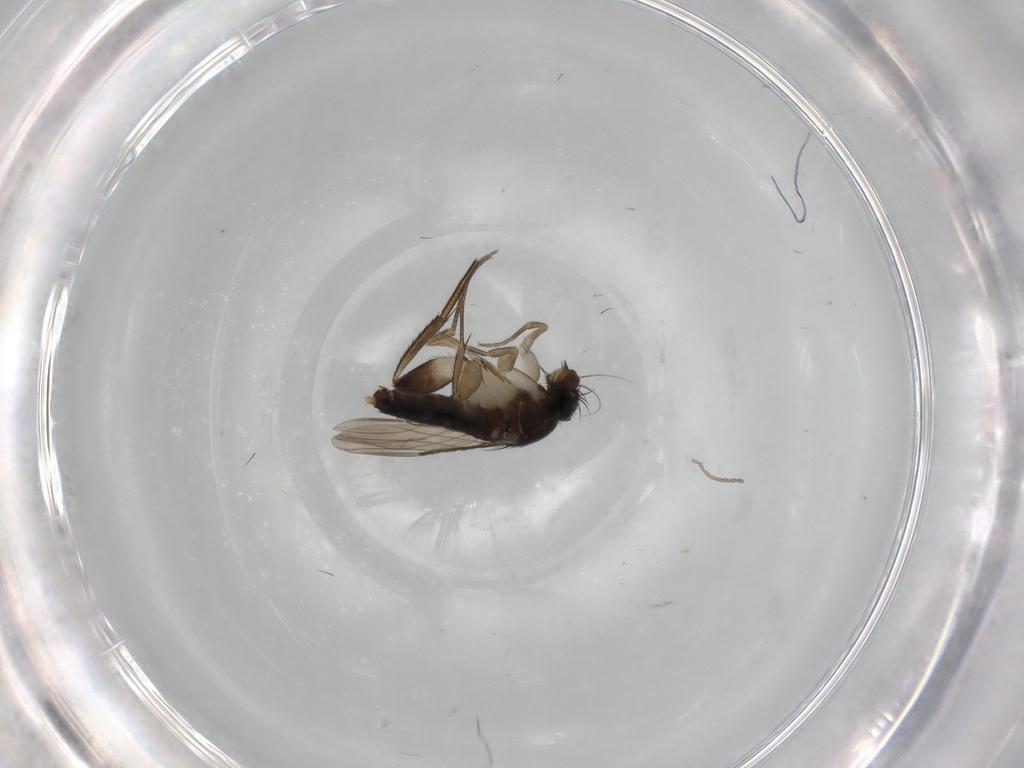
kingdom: Animalia
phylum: Arthropoda
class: Insecta
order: Diptera
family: Phoridae
